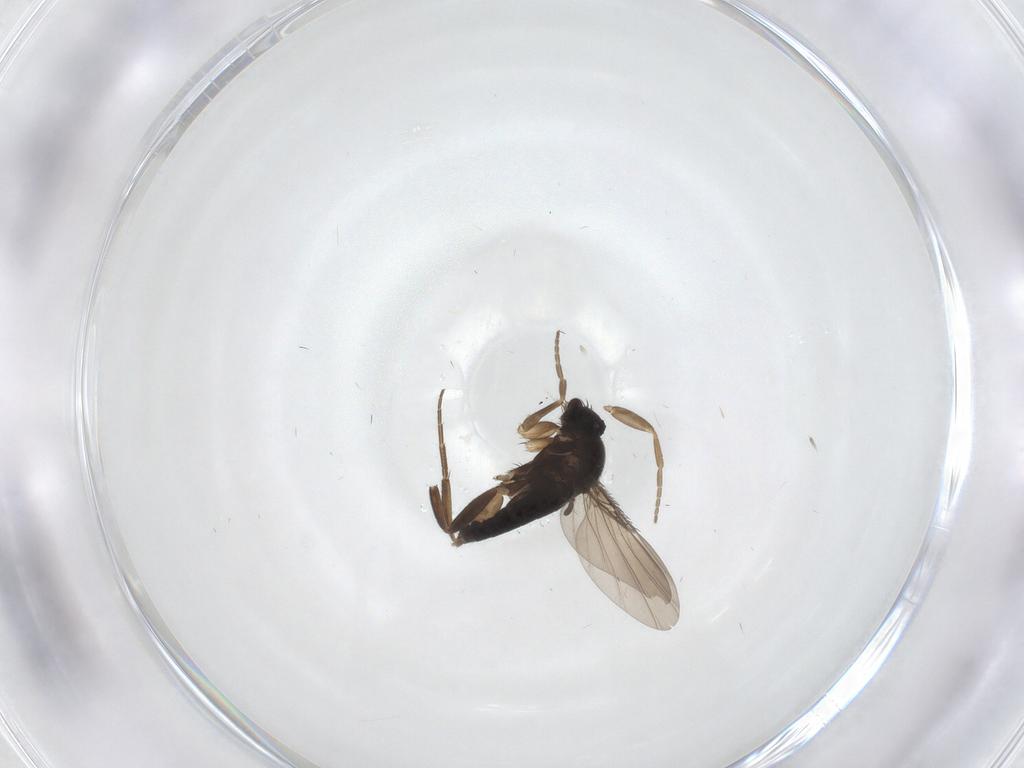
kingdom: Animalia
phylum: Arthropoda
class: Insecta
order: Diptera
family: Phoridae
